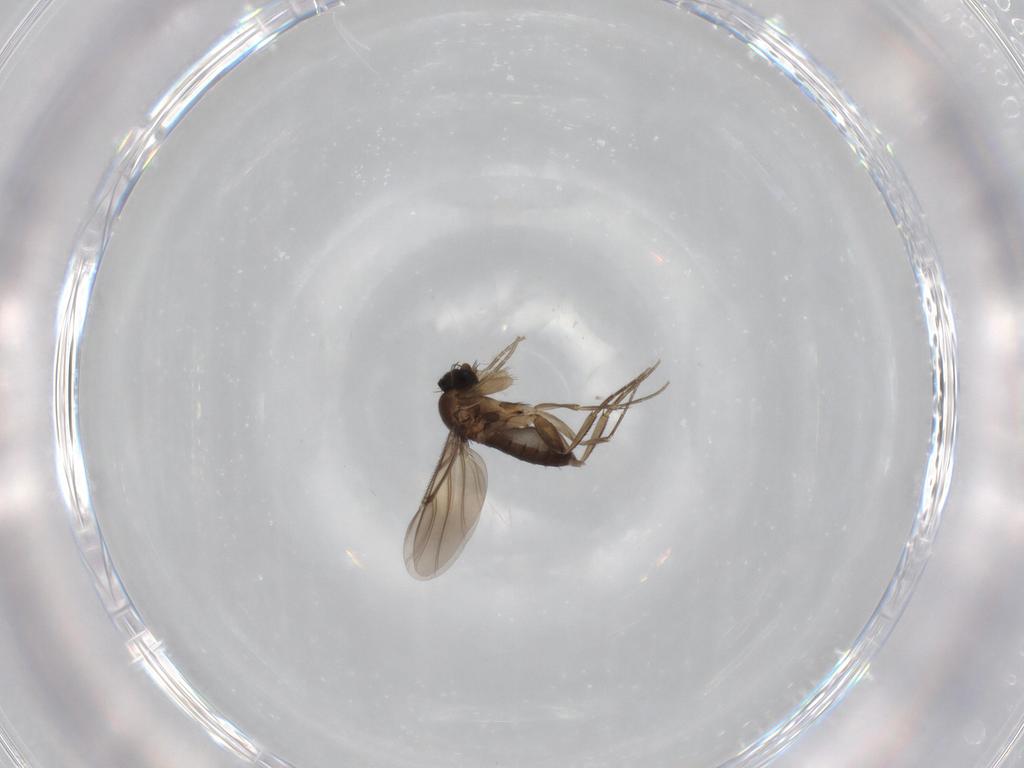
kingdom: Animalia
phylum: Arthropoda
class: Insecta
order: Diptera
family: Phoridae
